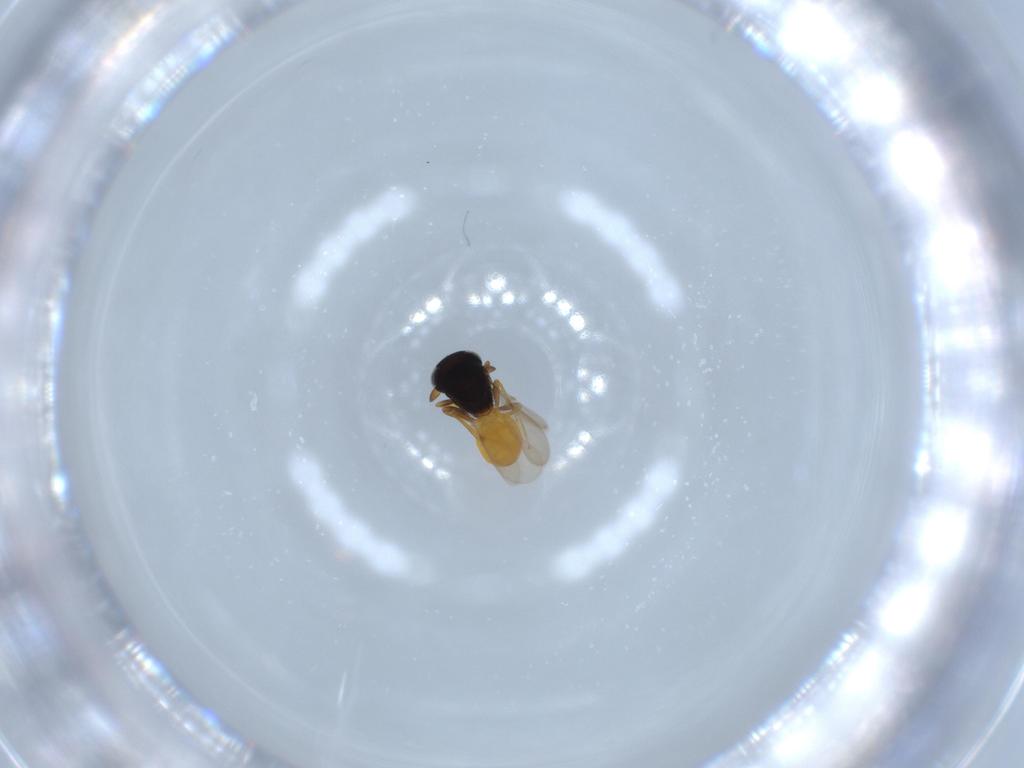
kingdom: Animalia
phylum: Arthropoda
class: Insecta
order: Hymenoptera
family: Scelionidae
